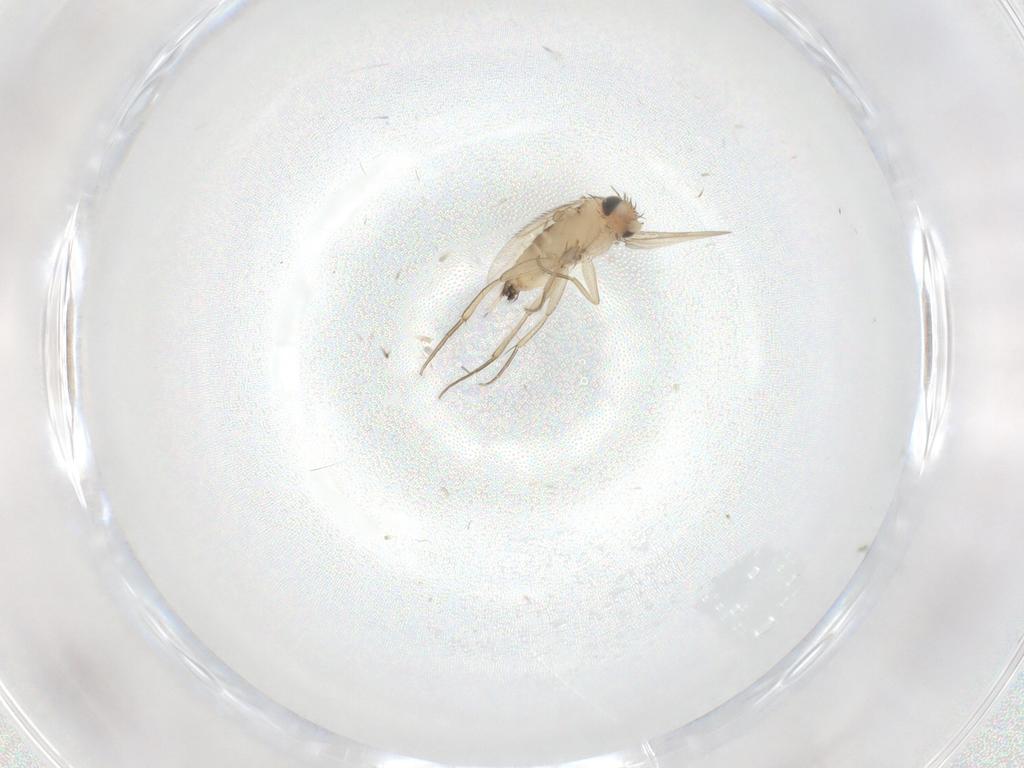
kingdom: Animalia
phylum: Arthropoda
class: Insecta
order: Diptera
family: Phoridae
